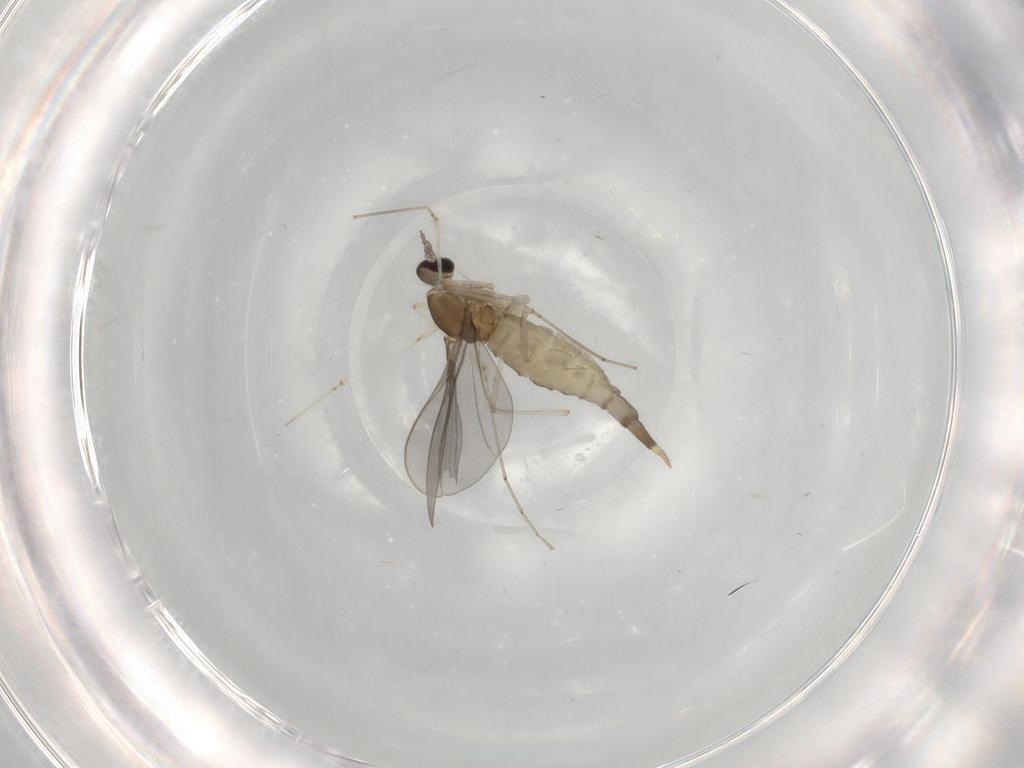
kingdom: Animalia
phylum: Arthropoda
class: Insecta
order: Diptera
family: Cecidomyiidae
